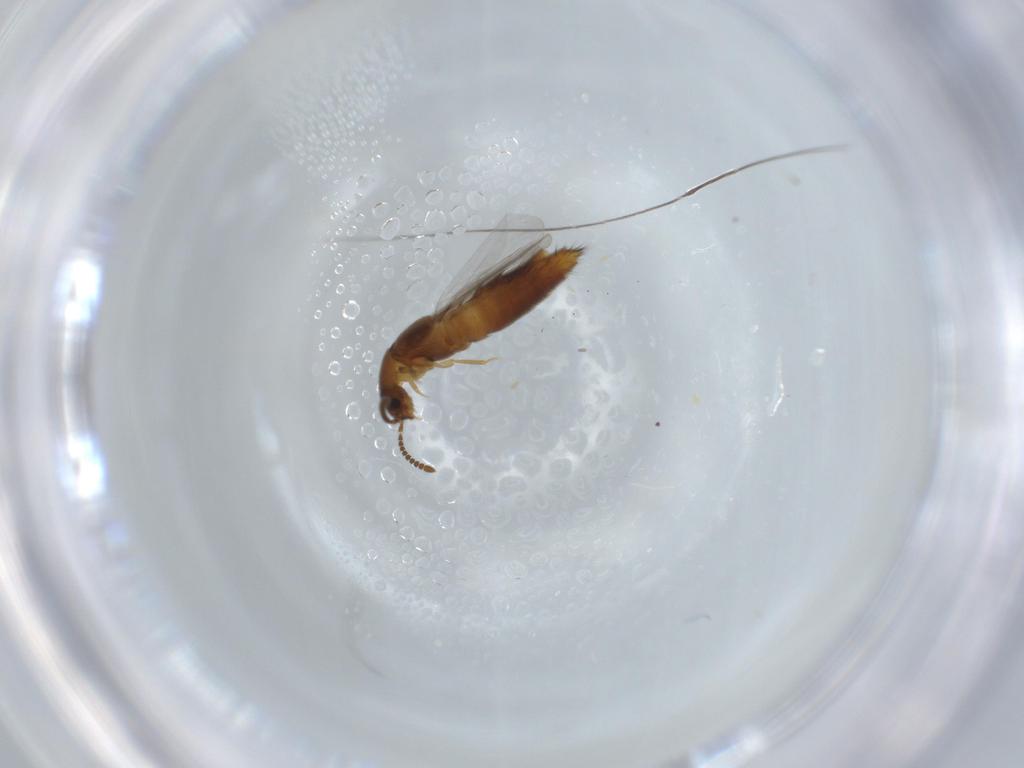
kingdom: Animalia
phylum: Arthropoda
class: Insecta
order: Coleoptera
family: Staphylinidae
